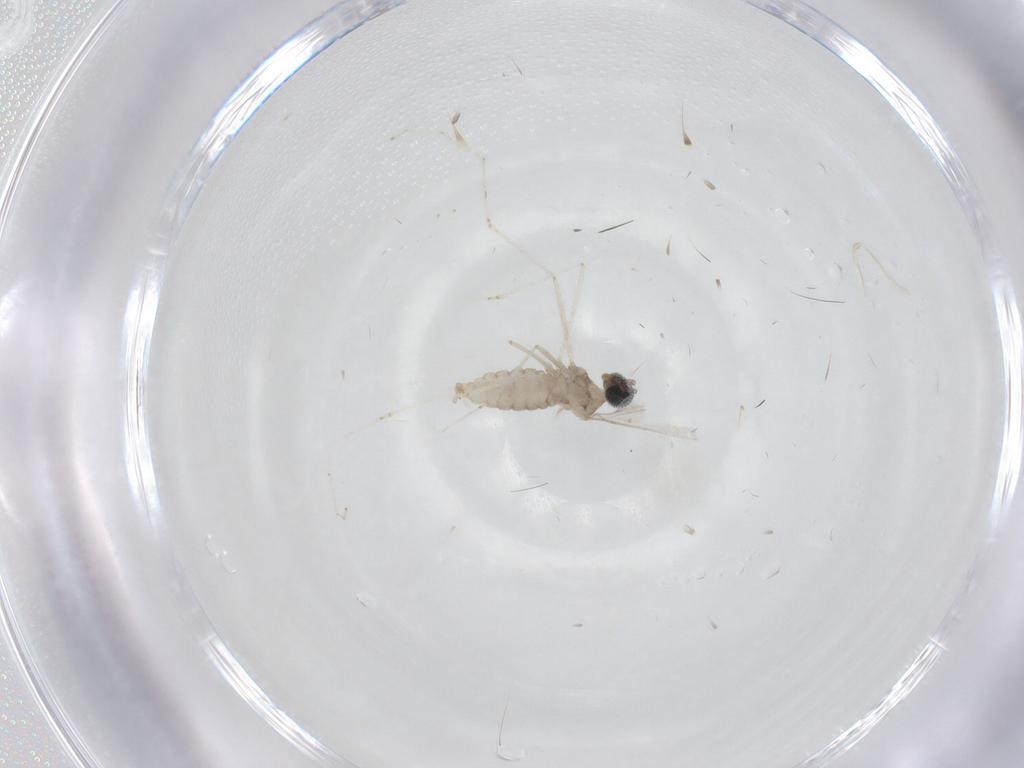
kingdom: Animalia
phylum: Arthropoda
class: Insecta
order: Diptera
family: Cecidomyiidae
